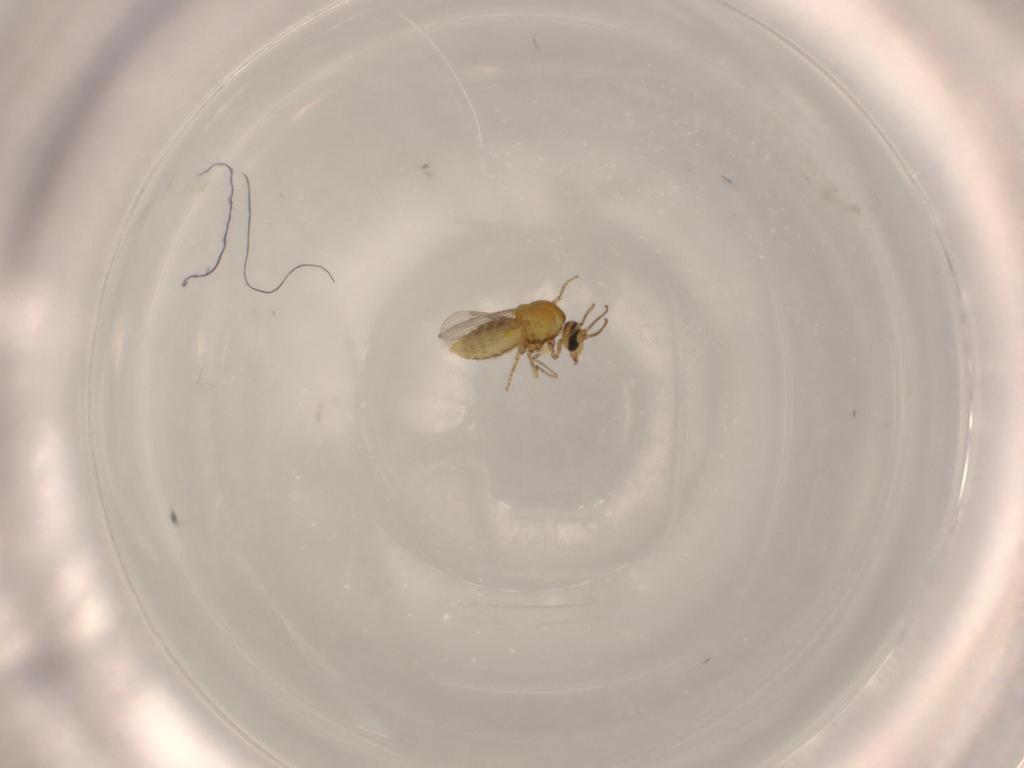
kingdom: Animalia
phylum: Arthropoda
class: Insecta
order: Diptera
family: Ceratopogonidae
